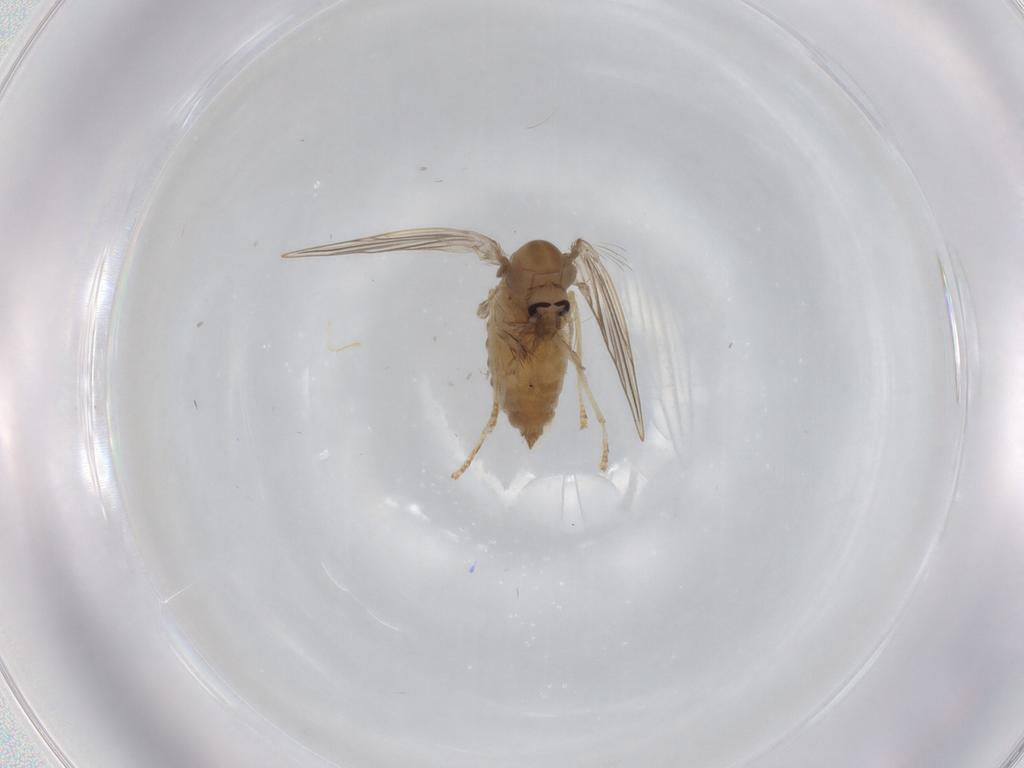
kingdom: Animalia
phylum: Arthropoda
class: Insecta
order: Diptera
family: Psychodidae
